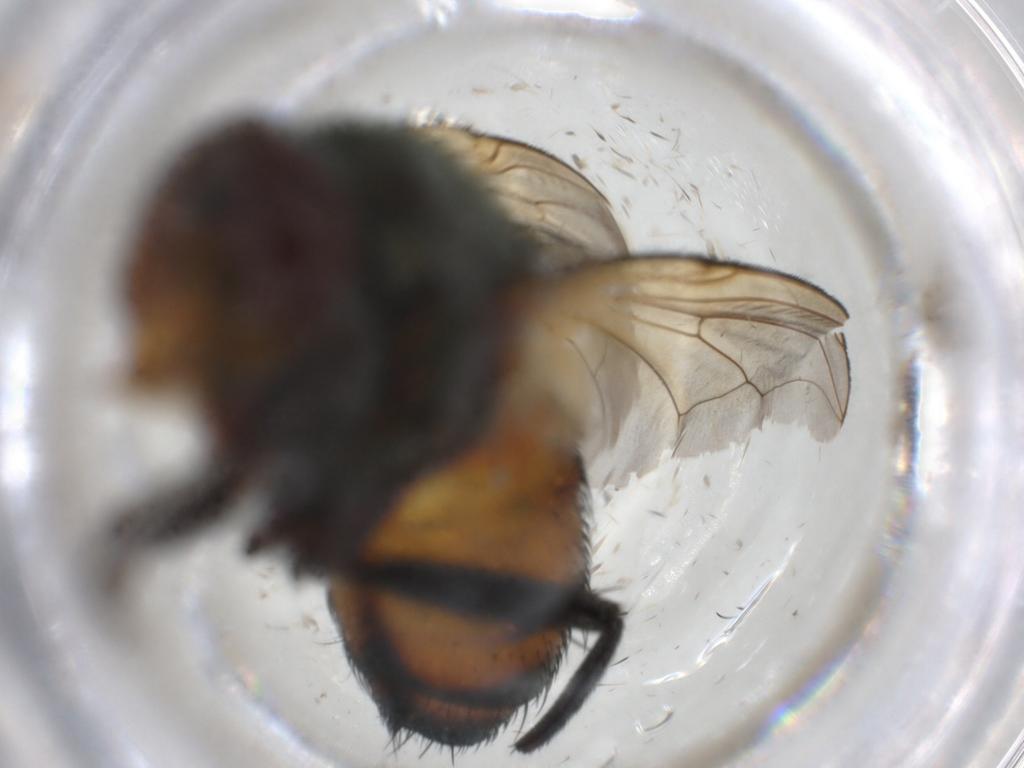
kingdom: Animalia
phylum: Arthropoda
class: Insecta
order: Diptera
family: Calliphoridae
